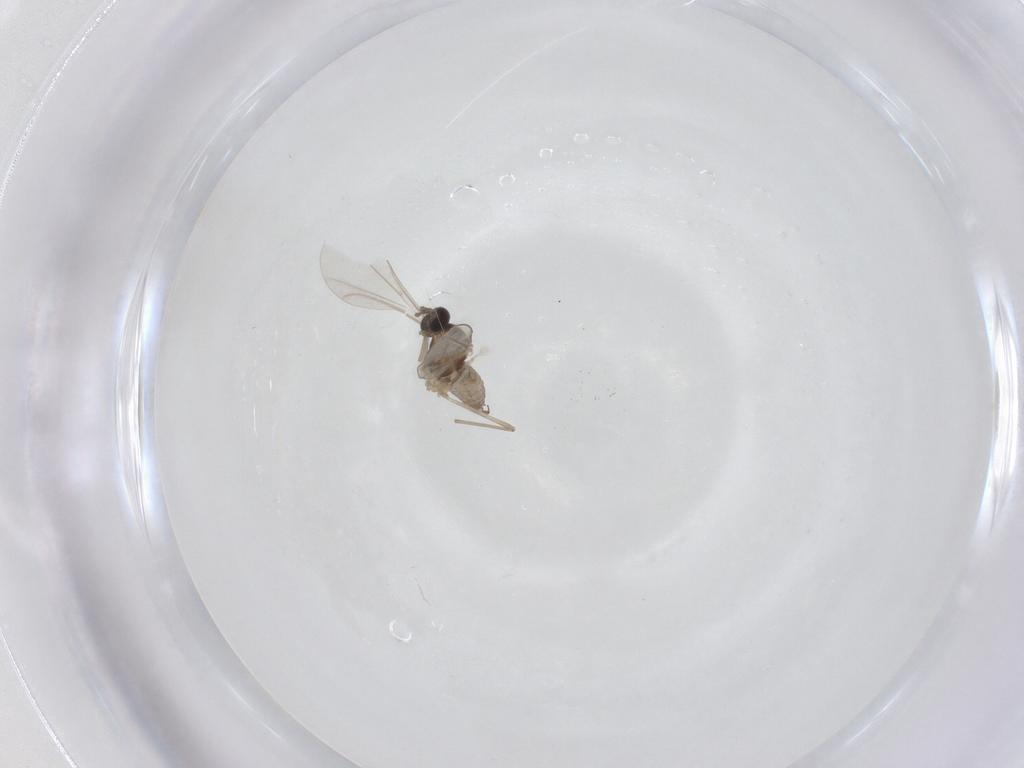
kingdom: Animalia
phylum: Arthropoda
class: Insecta
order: Diptera
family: Cecidomyiidae
